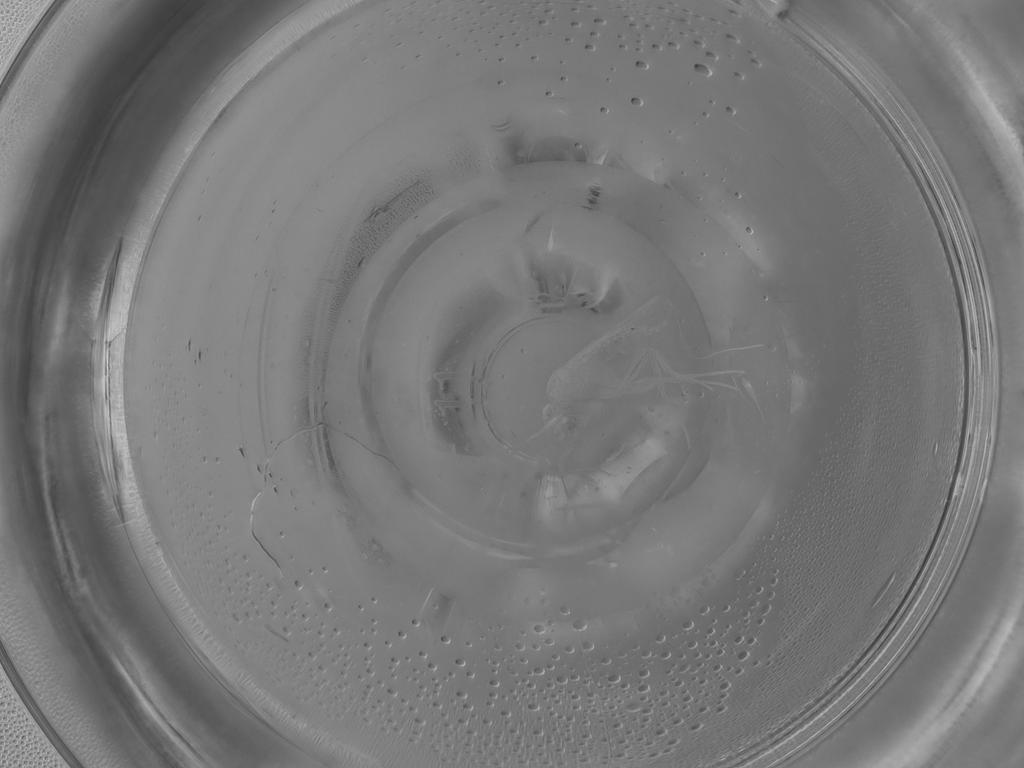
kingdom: Animalia
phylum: Arthropoda
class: Insecta
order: Diptera
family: Phoridae
